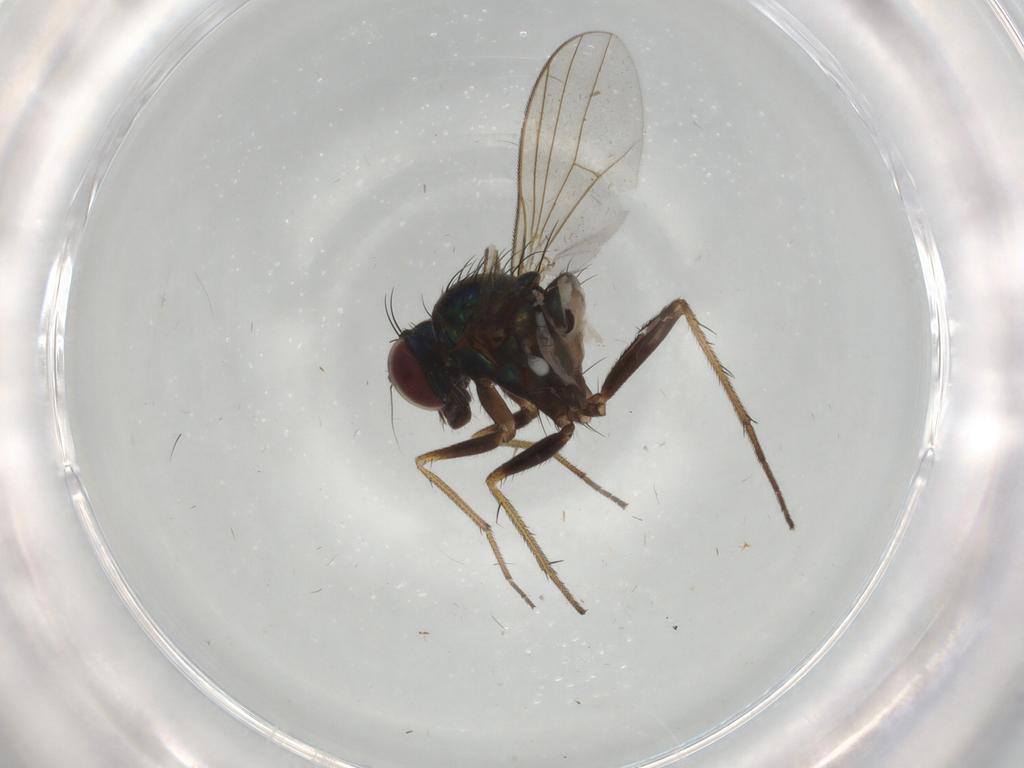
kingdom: Animalia
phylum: Arthropoda
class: Insecta
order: Diptera
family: Dolichopodidae
